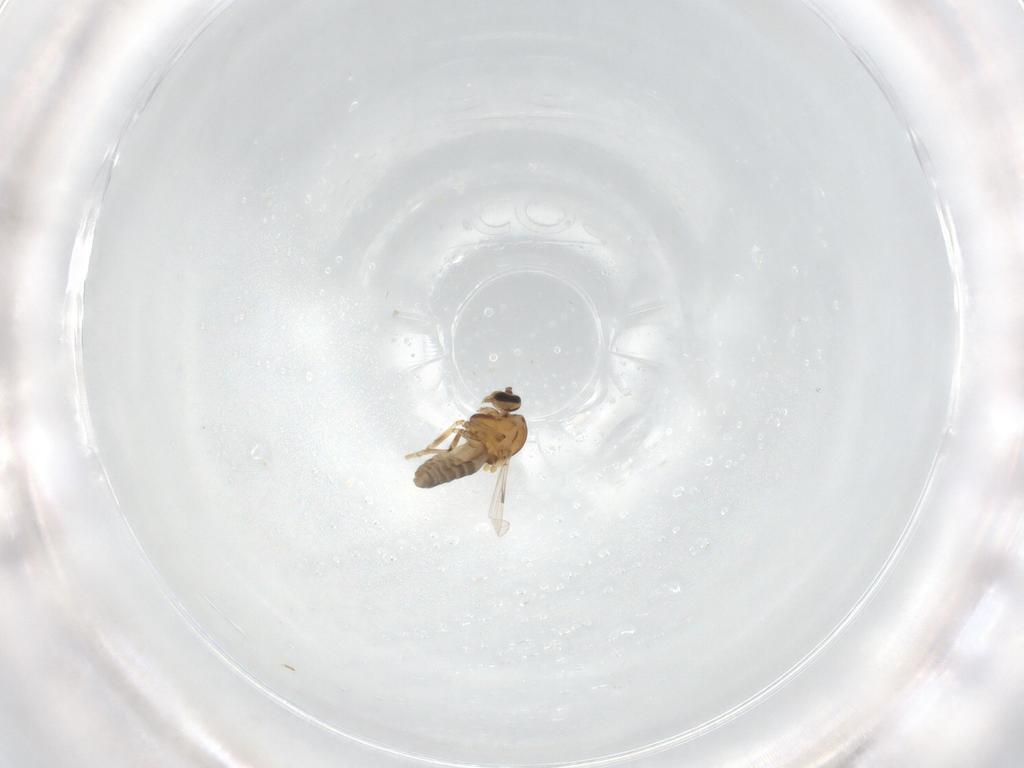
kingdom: Animalia
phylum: Arthropoda
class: Insecta
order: Diptera
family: Ceratopogonidae
